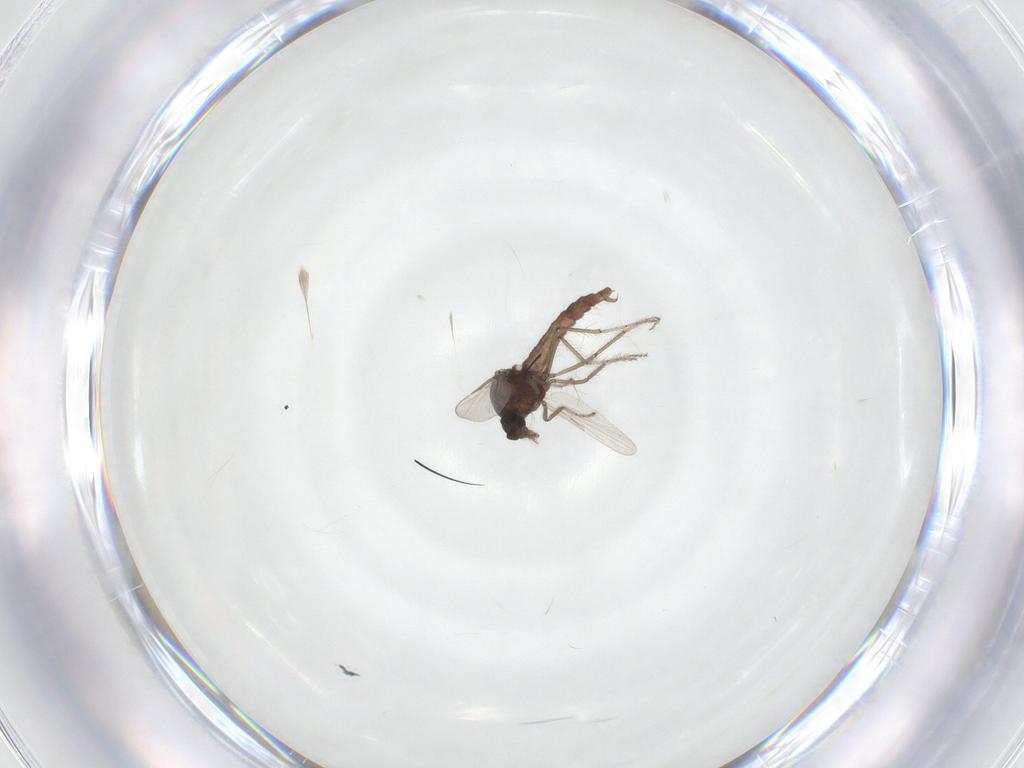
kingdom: Animalia
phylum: Arthropoda
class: Insecta
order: Diptera
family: Ceratopogonidae
